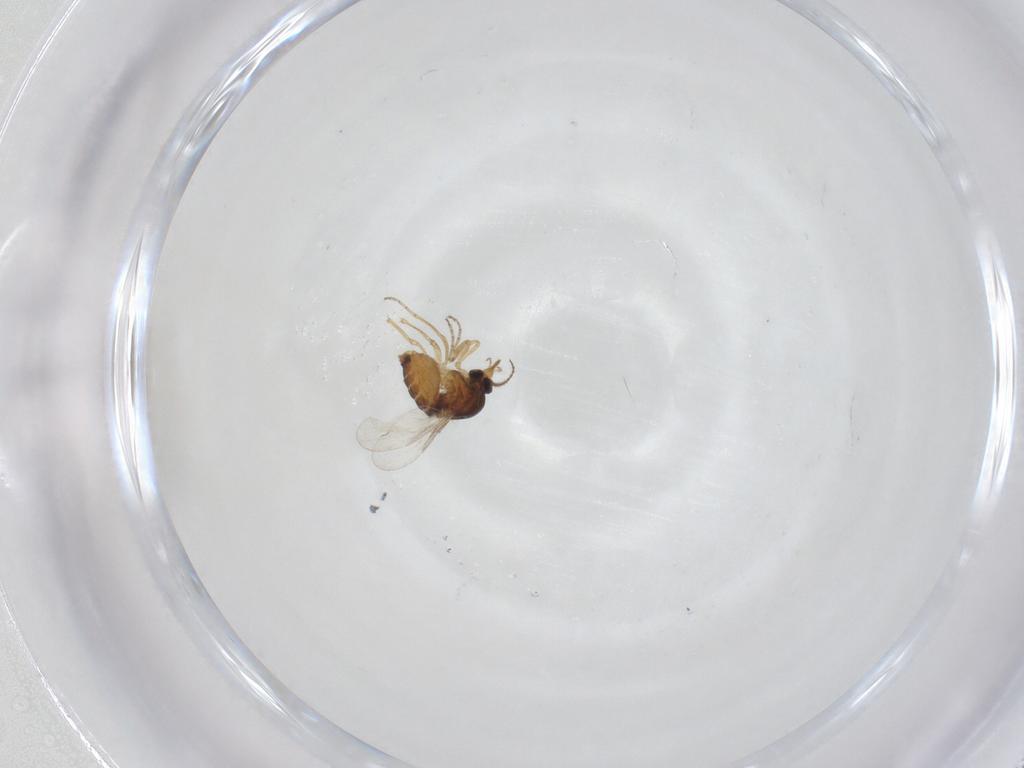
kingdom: Animalia
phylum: Arthropoda
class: Insecta
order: Diptera
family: Ceratopogonidae
